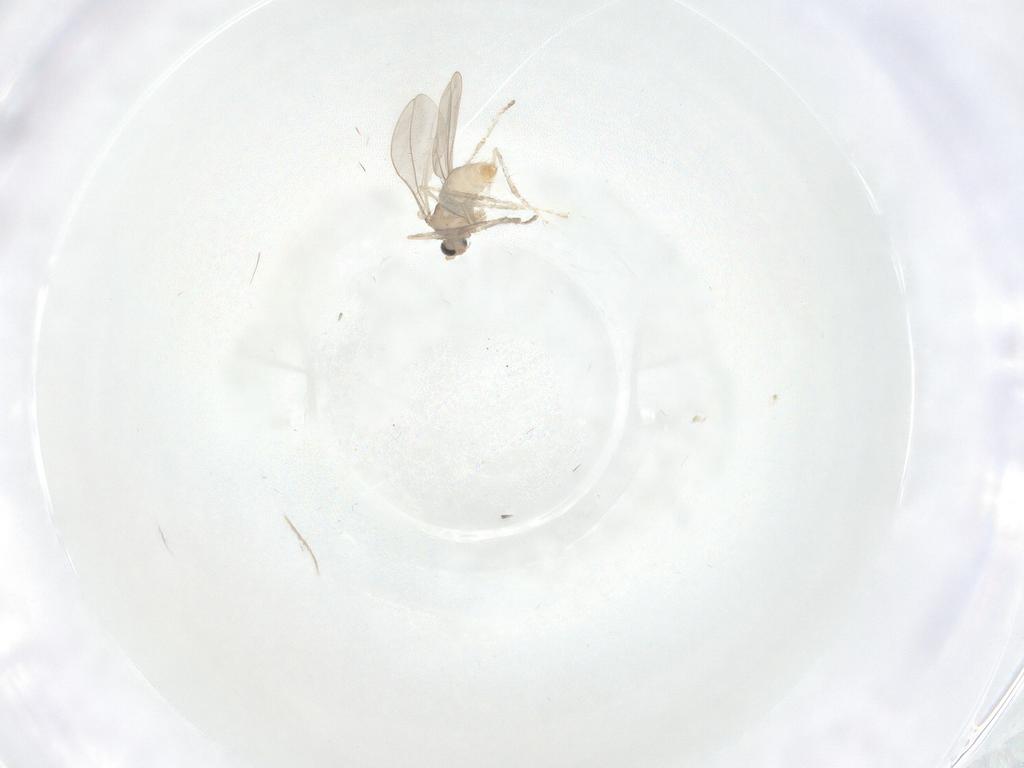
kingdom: Animalia
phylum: Arthropoda
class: Insecta
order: Diptera
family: Chironomidae
